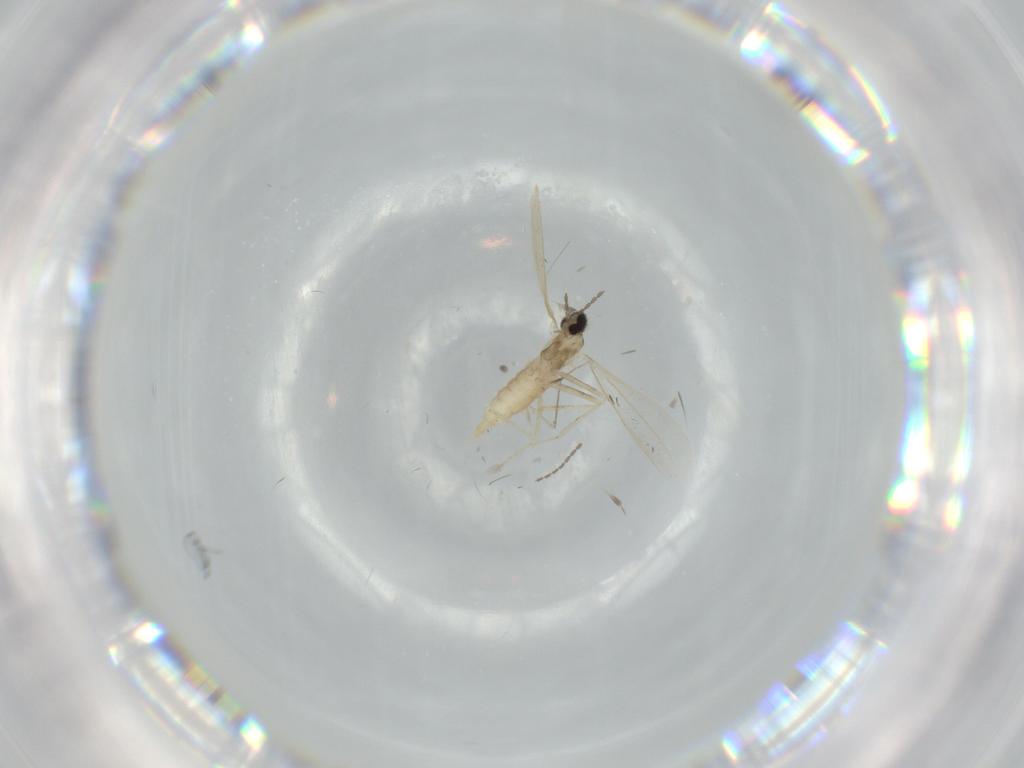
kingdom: Animalia
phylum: Arthropoda
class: Insecta
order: Diptera
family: Cecidomyiidae
